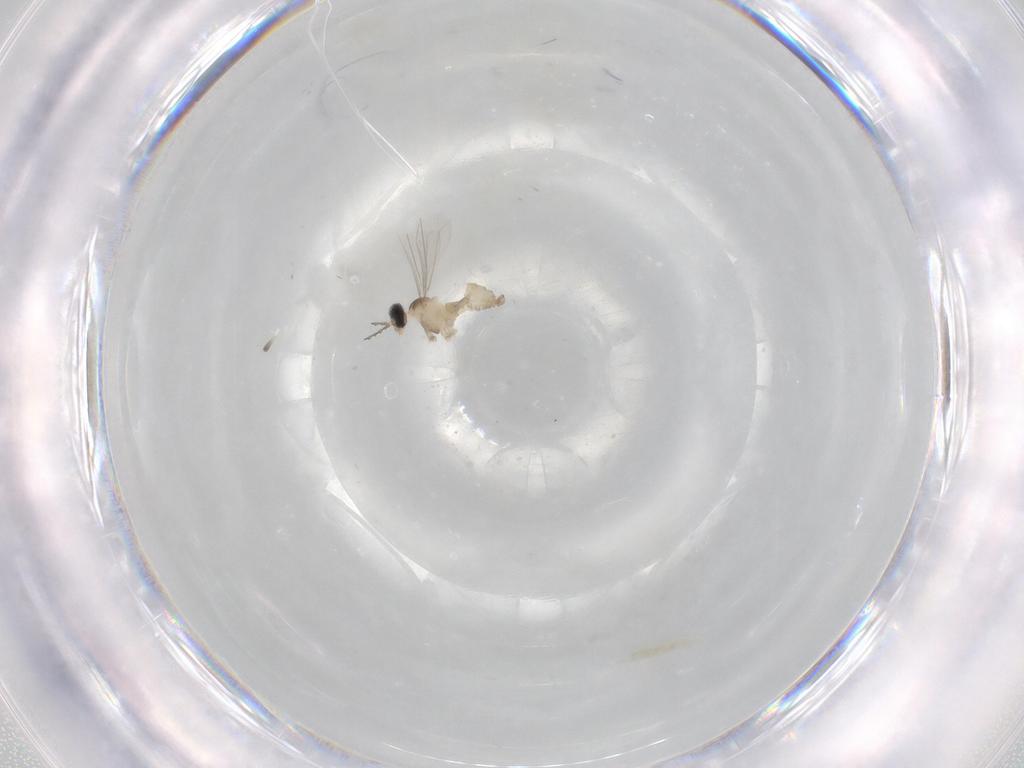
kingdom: Animalia
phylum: Arthropoda
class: Insecta
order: Diptera
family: Cecidomyiidae
